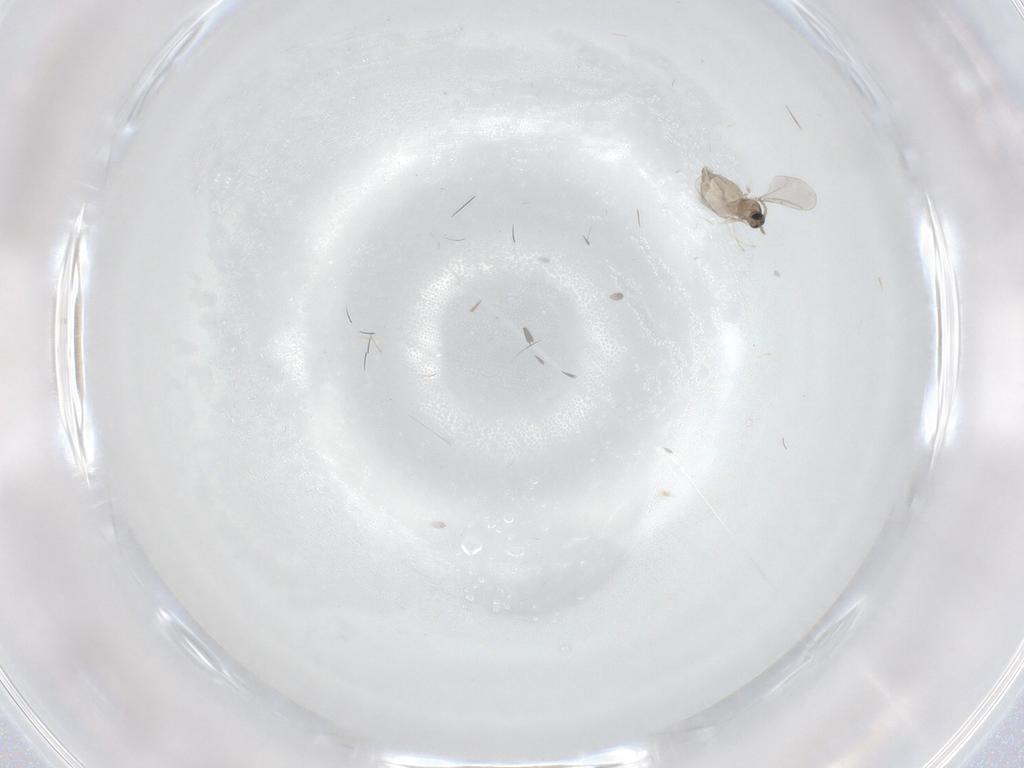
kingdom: Animalia
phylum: Arthropoda
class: Insecta
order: Diptera
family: Cecidomyiidae
